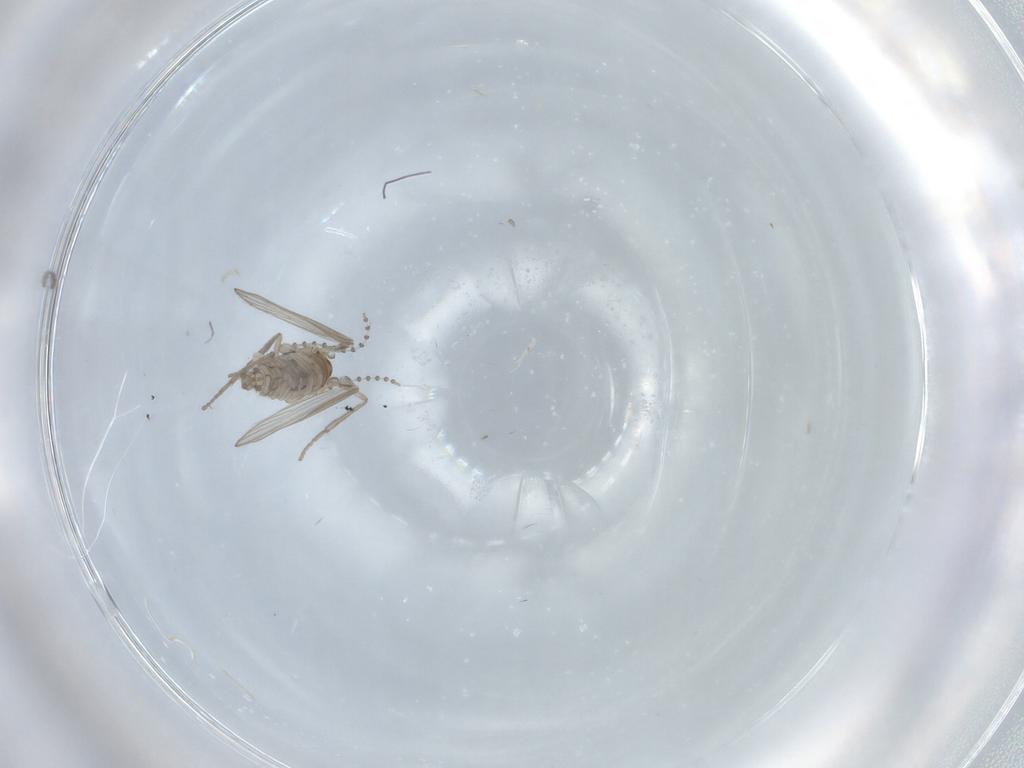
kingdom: Animalia
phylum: Arthropoda
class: Insecta
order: Diptera
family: Psychodidae
